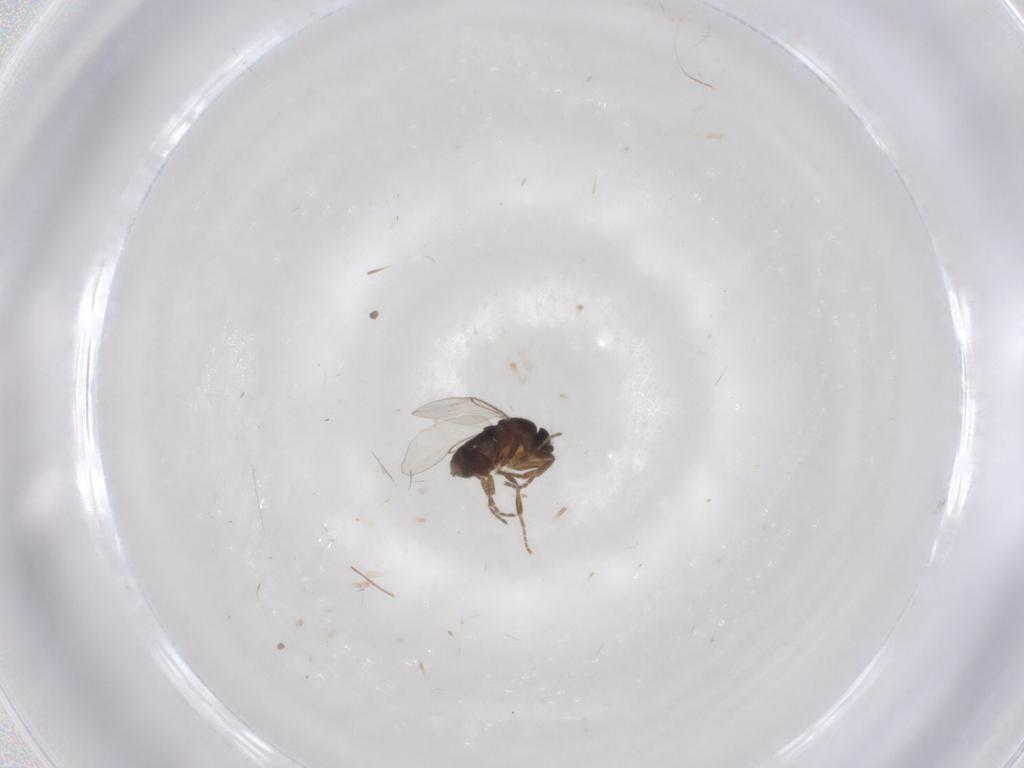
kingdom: Animalia
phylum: Arthropoda
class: Insecta
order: Diptera
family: Phoridae
